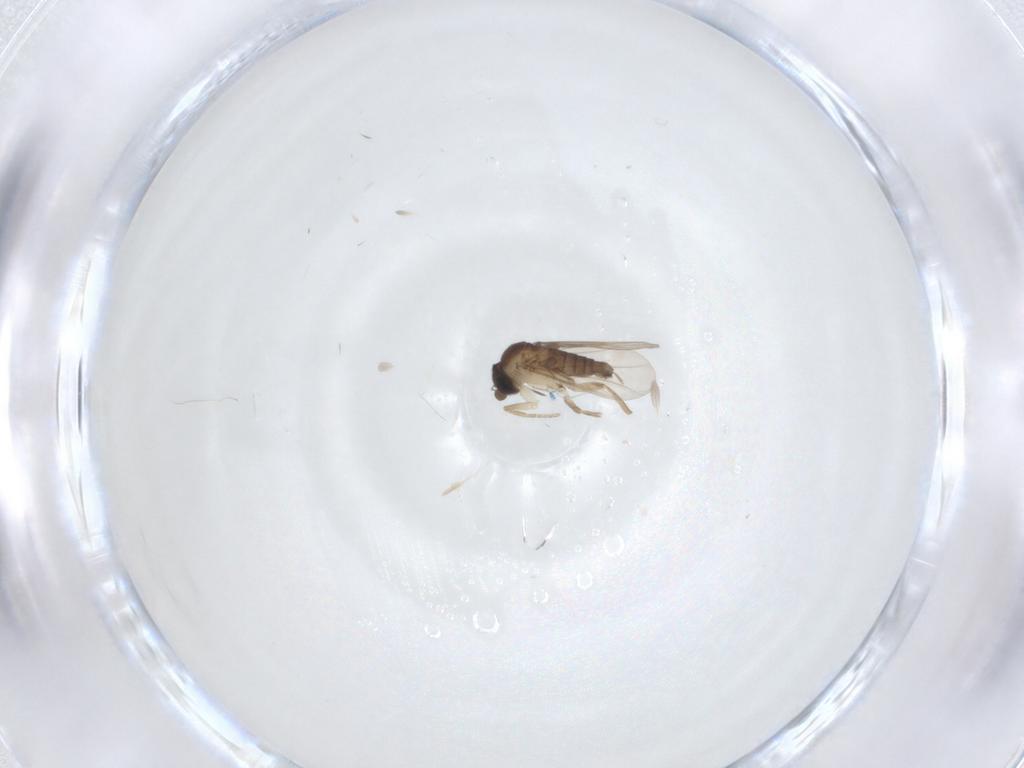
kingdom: Animalia
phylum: Arthropoda
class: Insecta
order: Diptera
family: Phoridae
